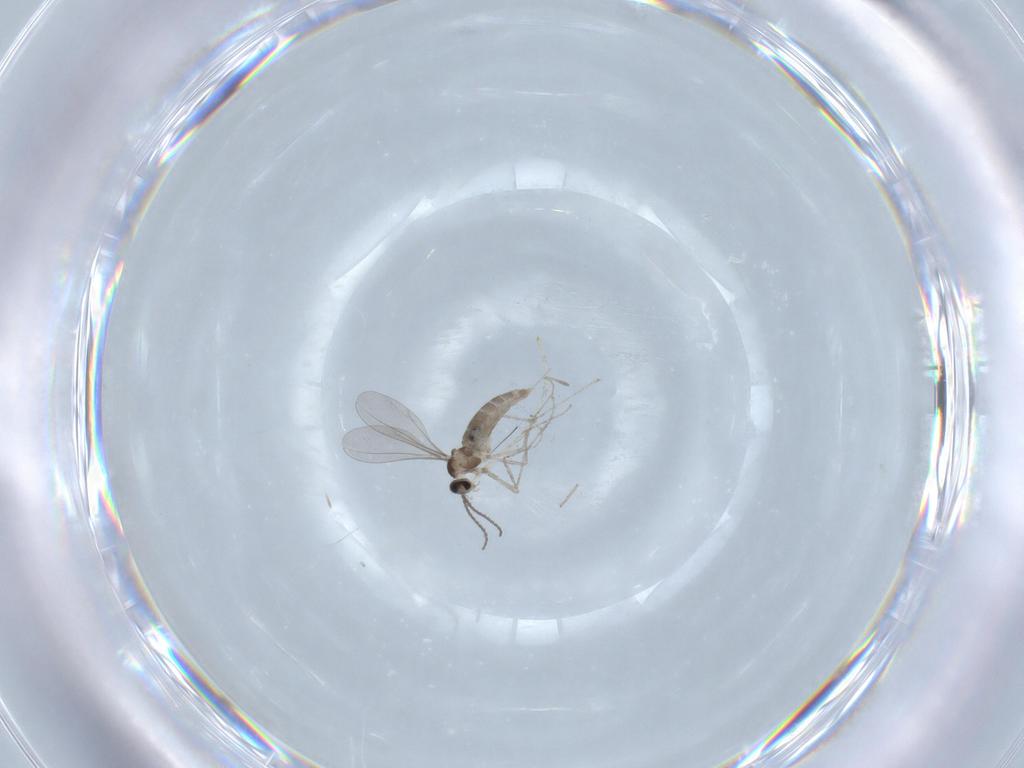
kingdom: Animalia
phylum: Arthropoda
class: Insecta
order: Diptera
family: Cecidomyiidae
